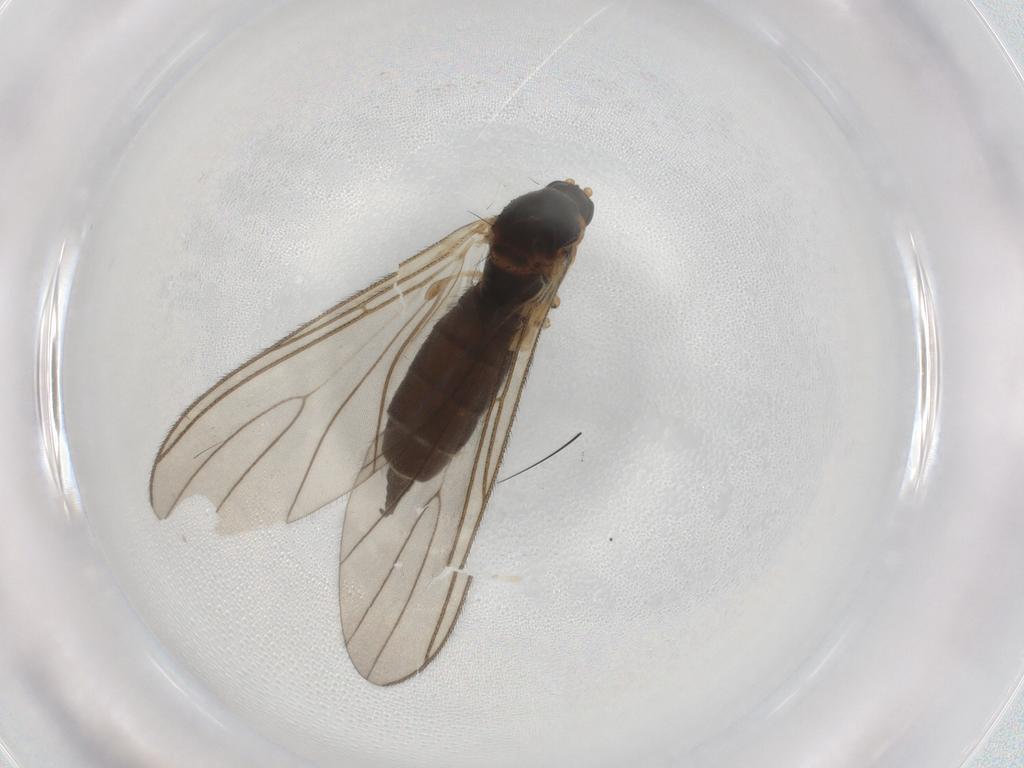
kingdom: Animalia
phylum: Arthropoda
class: Insecta
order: Diptera
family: Sciaridae
